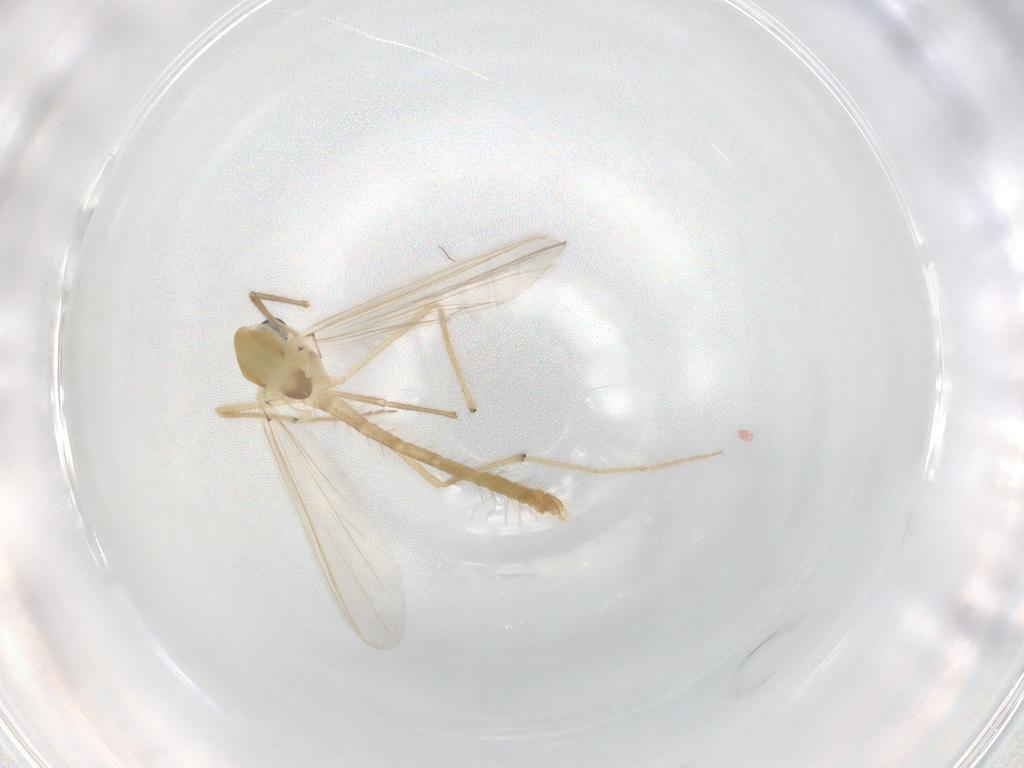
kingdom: Animalia
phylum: Arthropoda
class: Insecta
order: Diptera
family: Chironomidae
